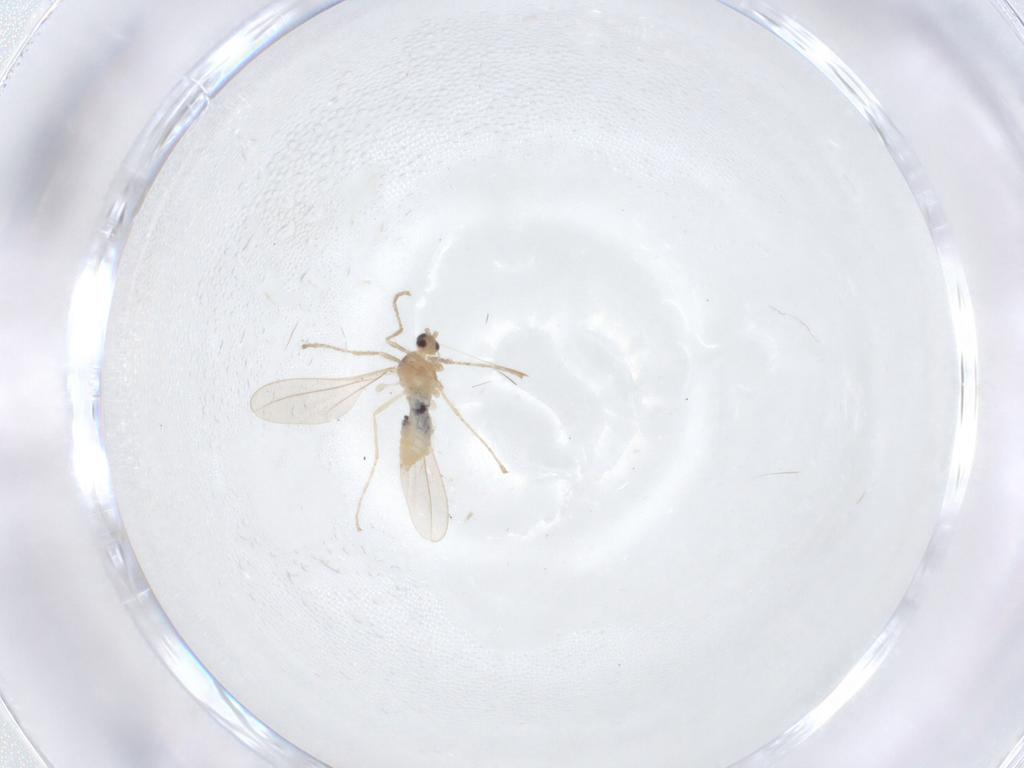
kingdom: Animalia
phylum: Arthropoda
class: Insecta
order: Diptera
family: Cecidomyiidae
